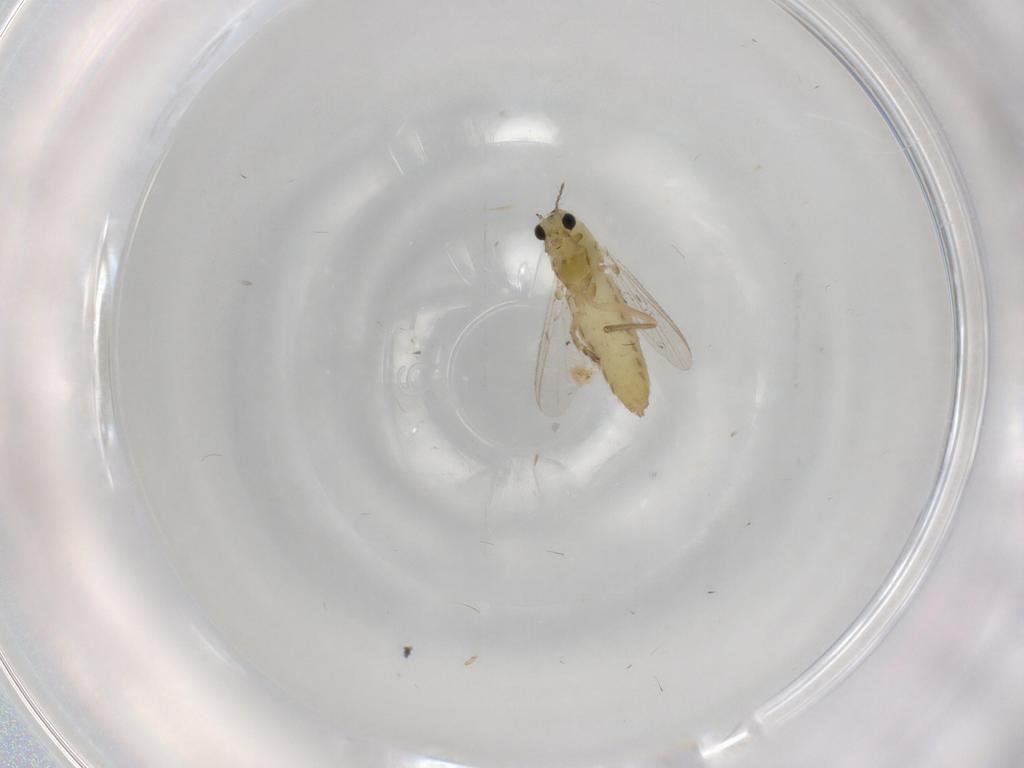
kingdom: Animalia
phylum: Arthropoda
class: Insecta
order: Diptera
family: Chironomidae
